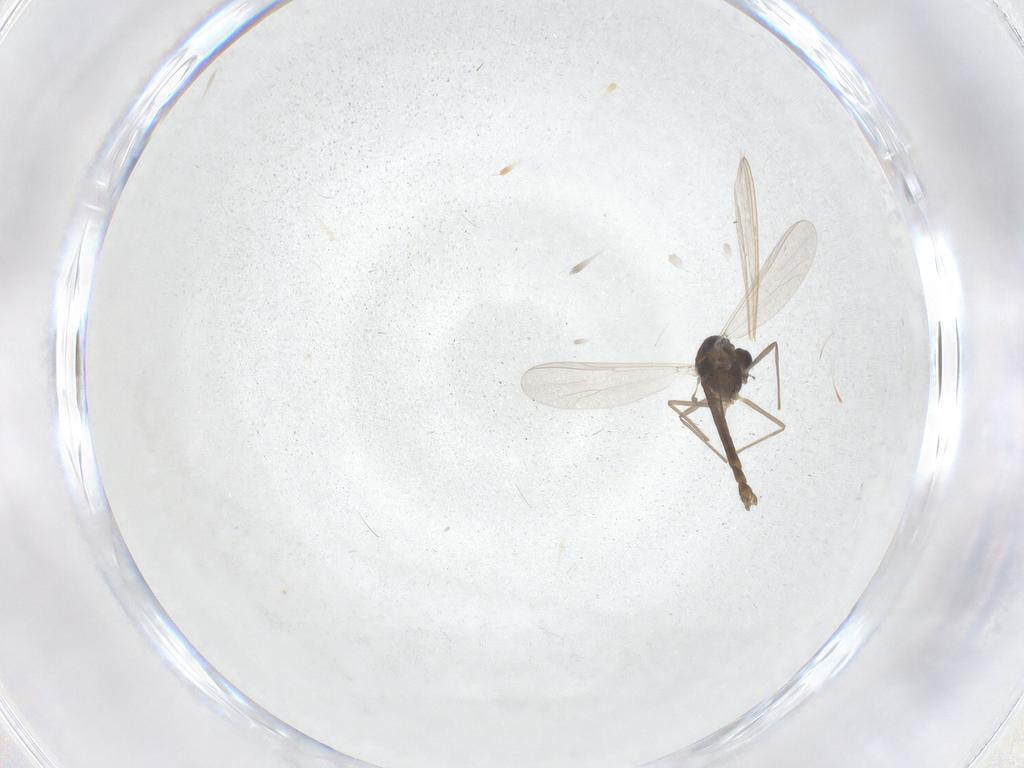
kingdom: Animalia
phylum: Arthropoda
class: Insecta
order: Diptera
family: Chironomidae
